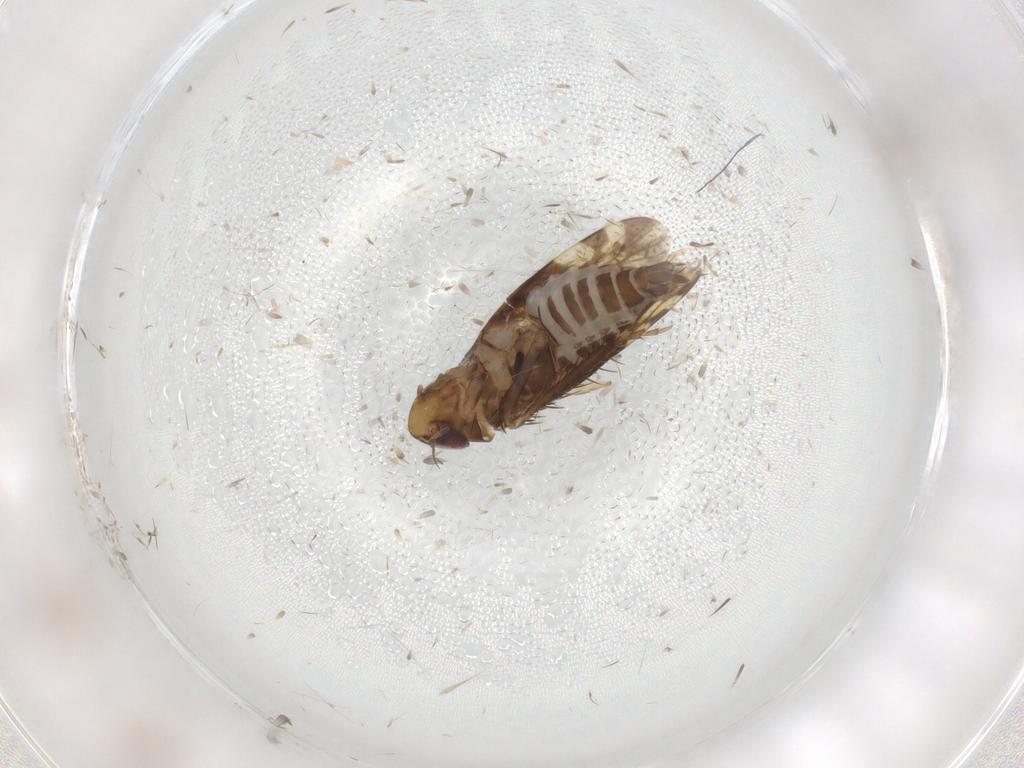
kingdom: Animalia
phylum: Arthropoda
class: Insecta
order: Hemiptera
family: Cicadellidae
